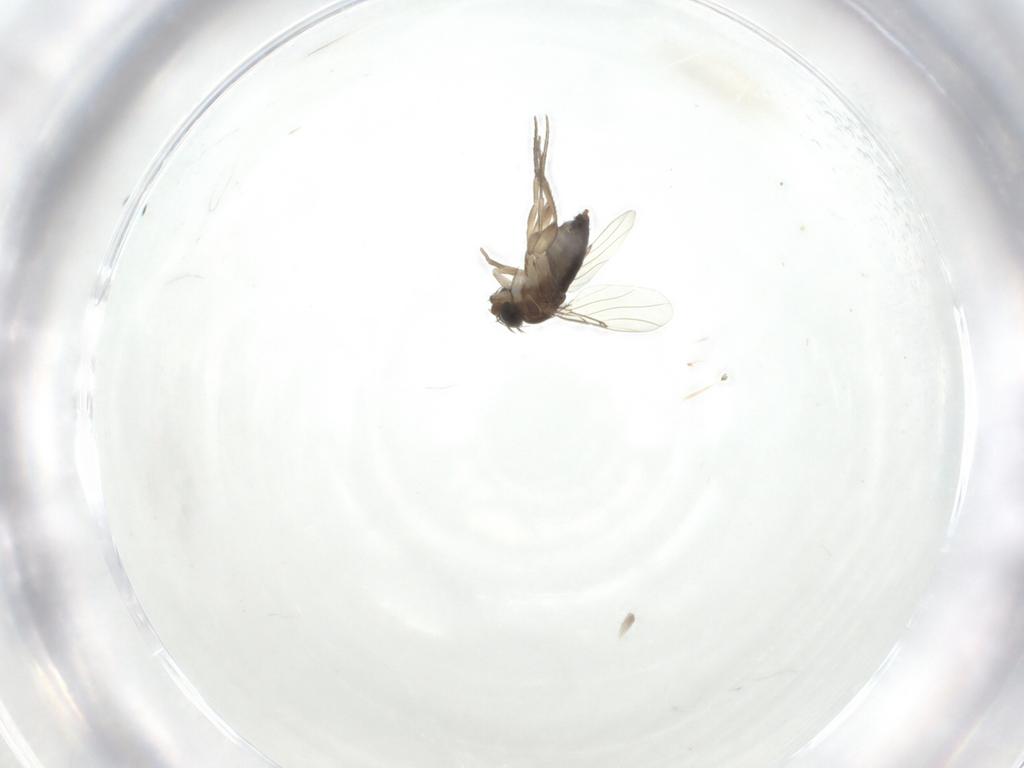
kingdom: Animalia
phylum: Arthropoda
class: Insecta
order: Diptera
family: Phoridae
